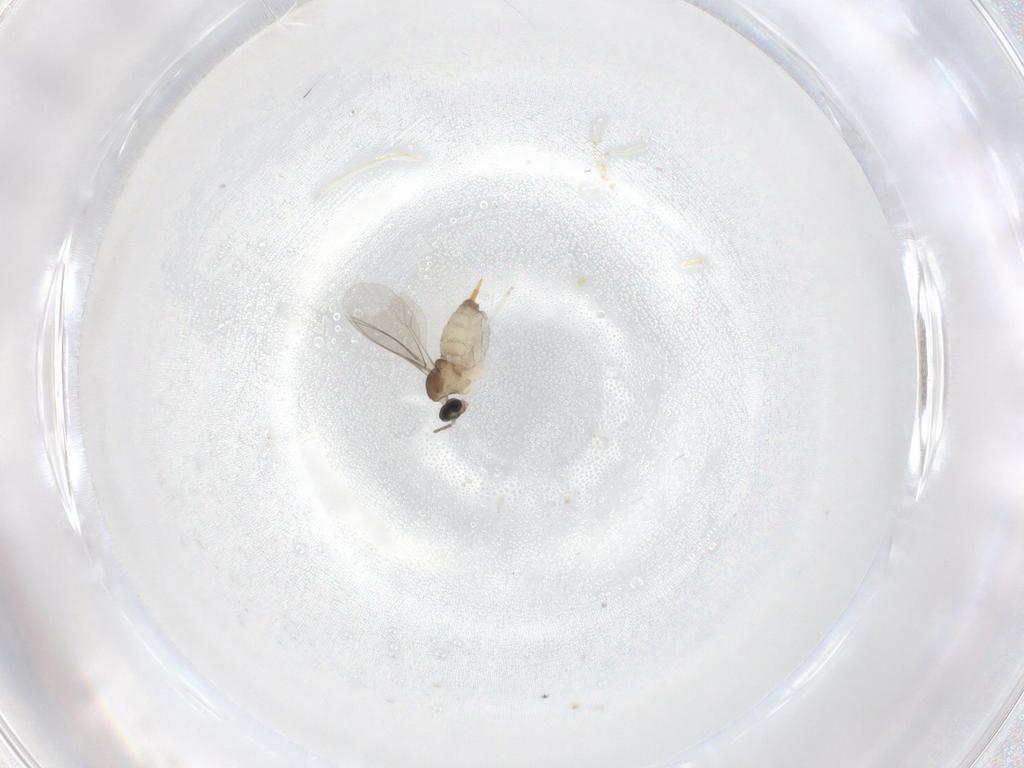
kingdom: Animalia
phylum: Arthropoda
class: Insecta
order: Diptera
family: Cecidomyiidae
